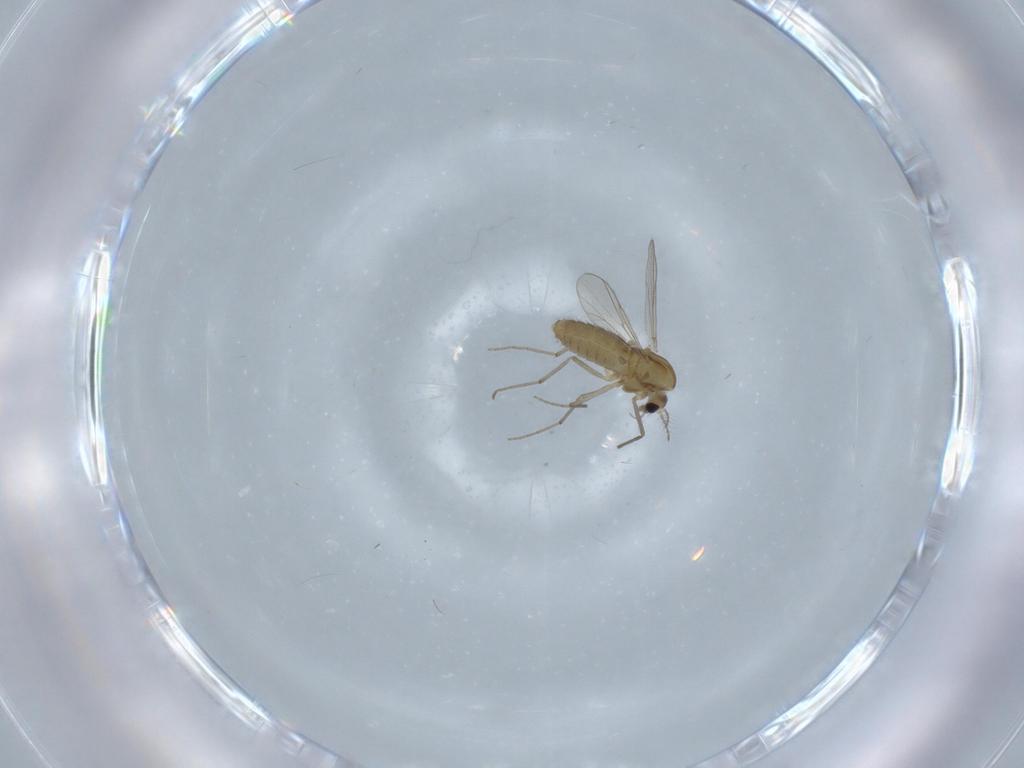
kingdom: Animalia
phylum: Arthropoda
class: Insecta
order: Diptera
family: Chironomidae
